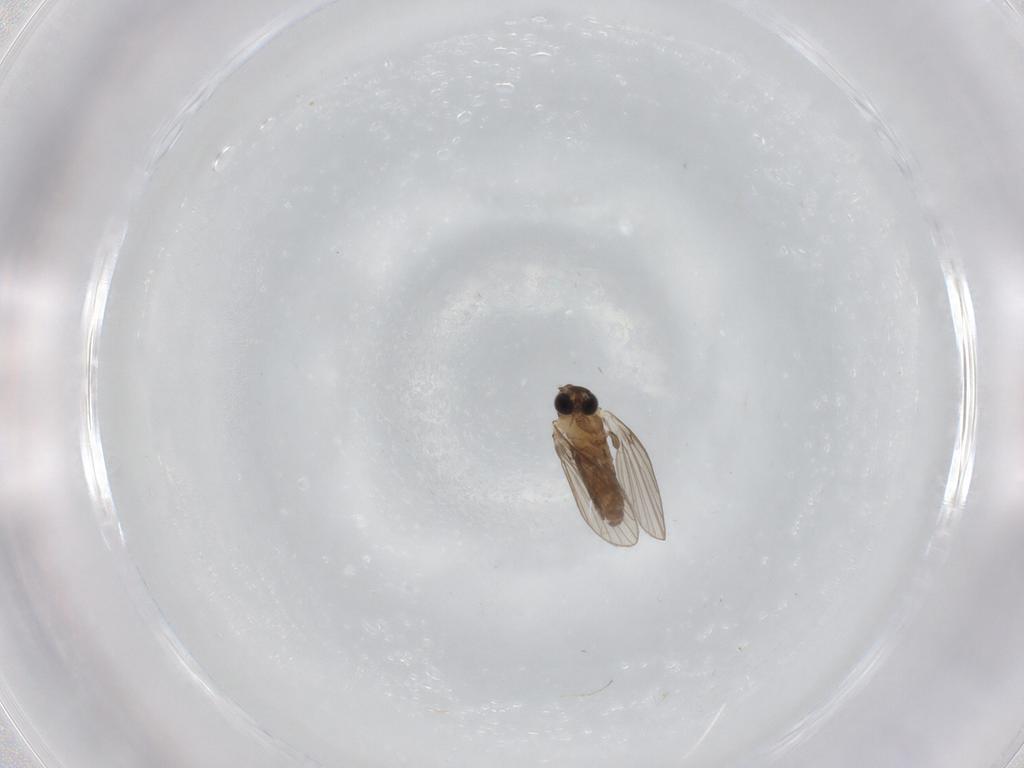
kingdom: Animalia
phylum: Arthropoda
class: Insecta
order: Diptera
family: Psychodidae
